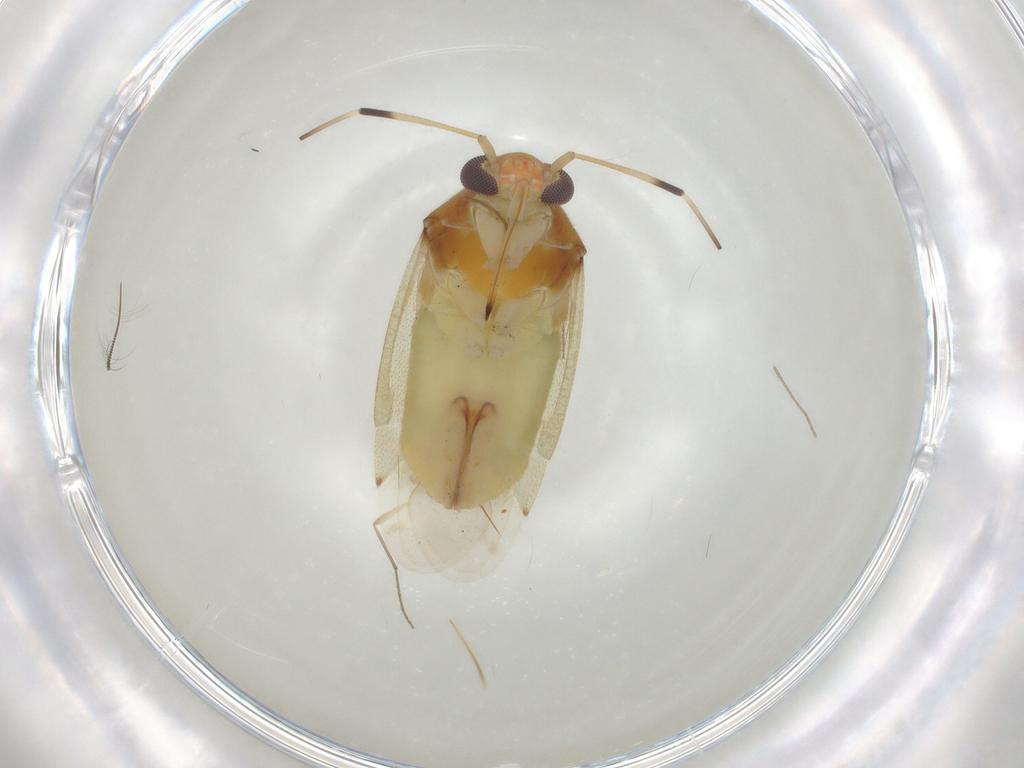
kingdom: Animalia
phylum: Arthropoda
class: Insecta
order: Hemiptera
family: Miridae
